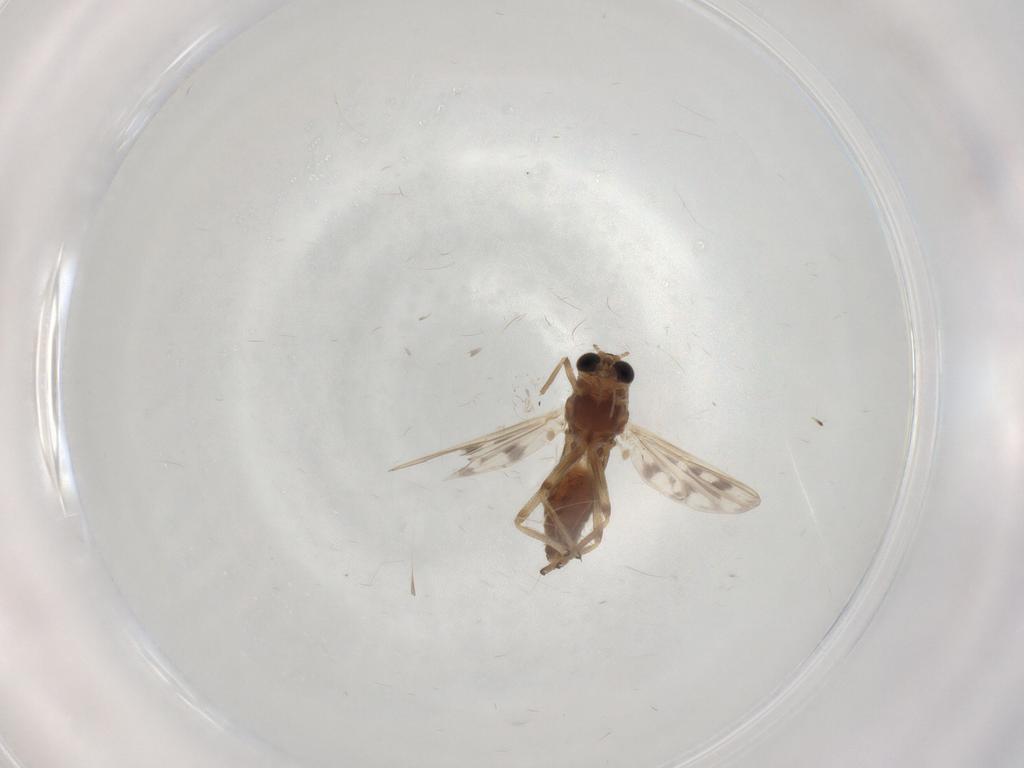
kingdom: Animalia
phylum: Arthropoda
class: Insecta
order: Diptera
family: Chironomidae
